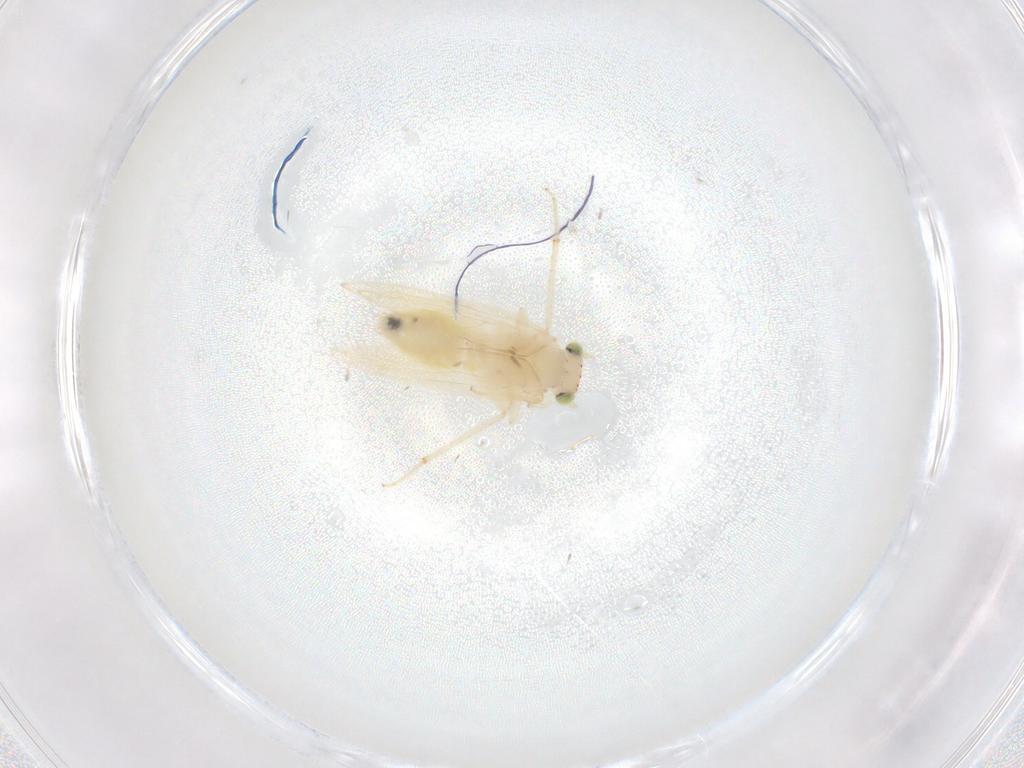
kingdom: Animalia
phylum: Arthropoda
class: Insecta
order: Psocodea
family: Lepidopsocidae
